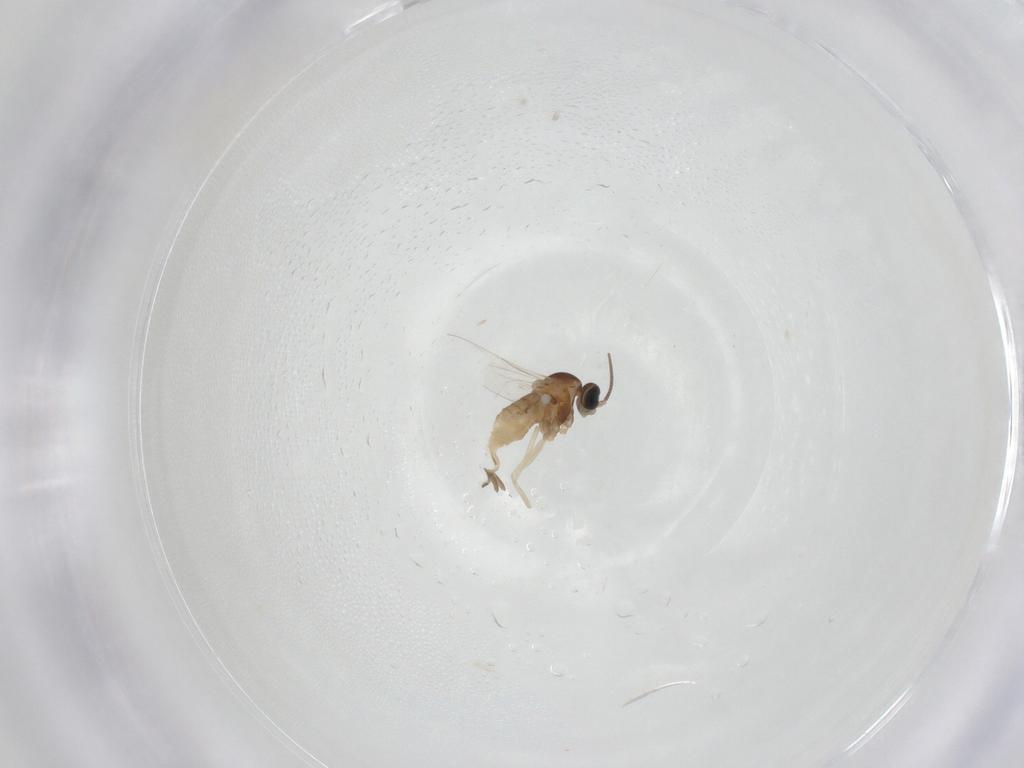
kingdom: Animalia
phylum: Arthropoda
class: Insecta
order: Diptera
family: Cecidomyiidae
